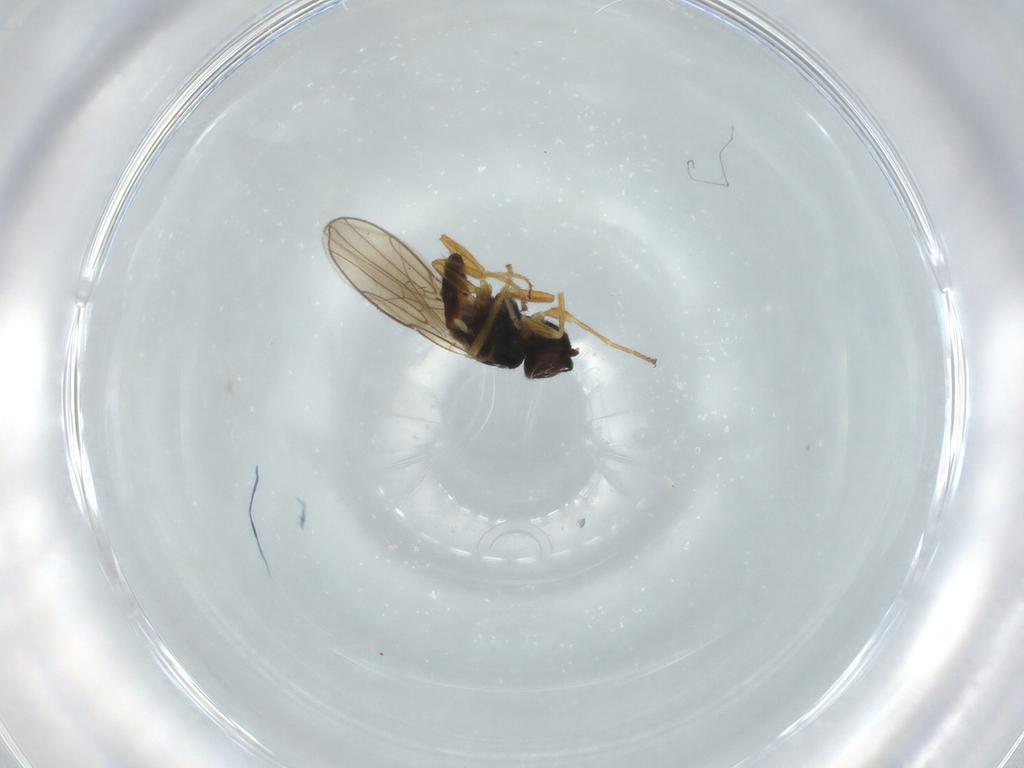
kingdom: Animalia
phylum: Arthropoda
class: Insecta
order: Diptera
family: Chloropidae
